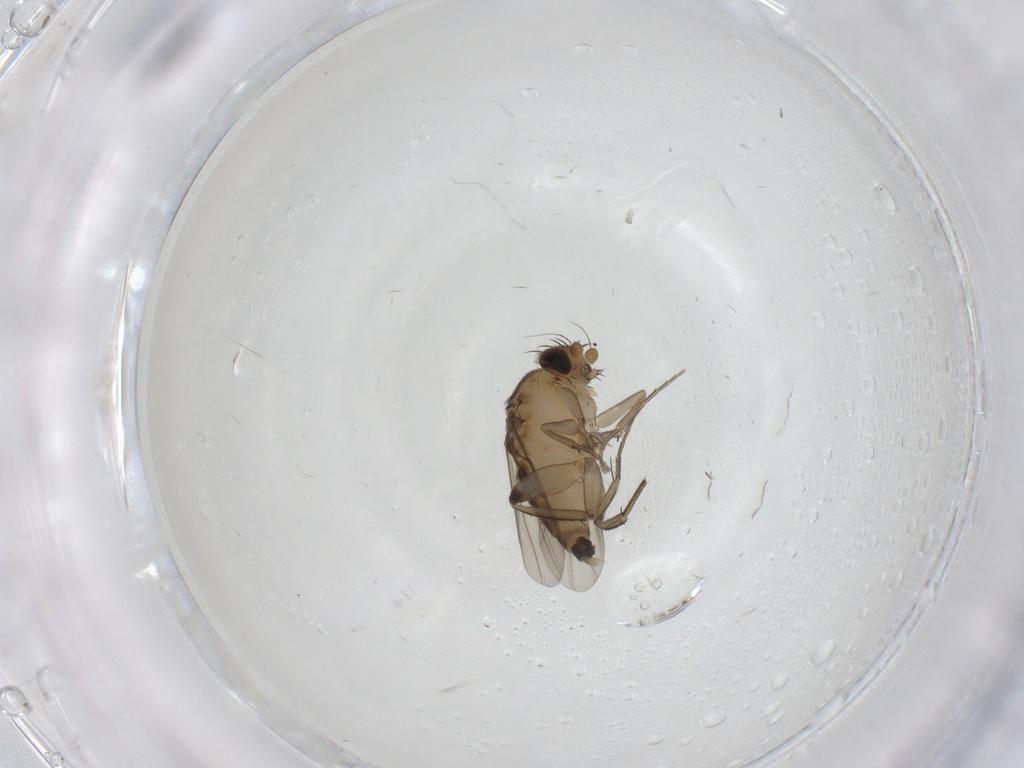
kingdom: Animalia
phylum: Arthropoda
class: Insecta
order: Diptera
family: Phoridae
